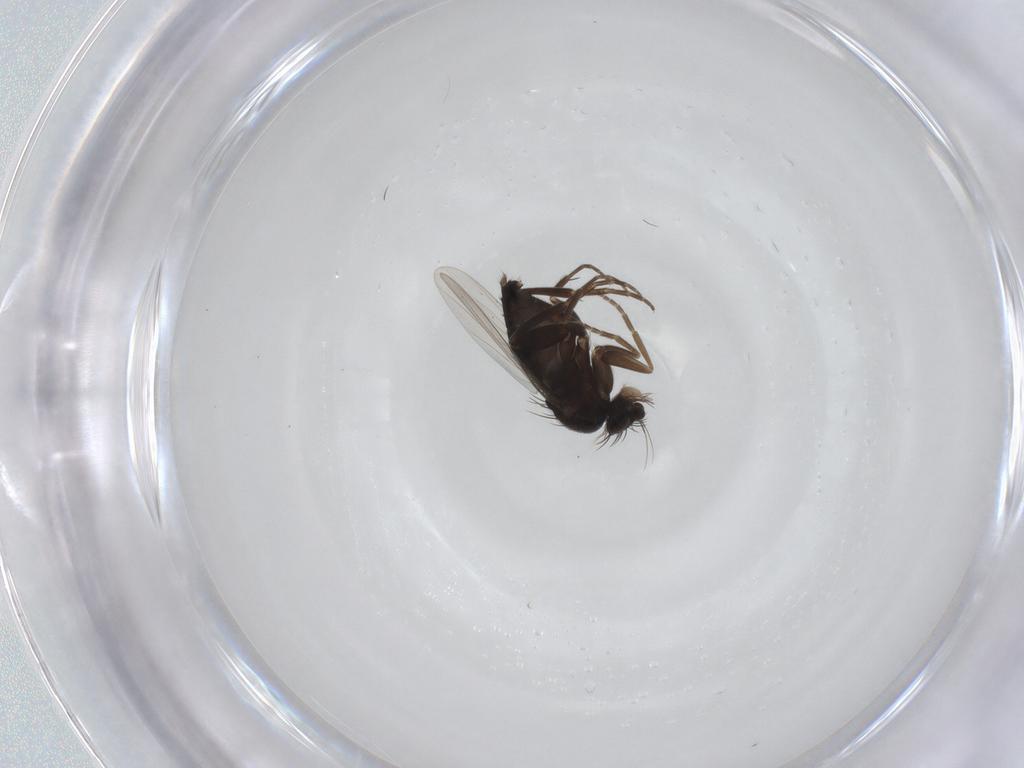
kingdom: Animalia
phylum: Arthropoda
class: Insecta
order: Diptera
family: Phoridae
